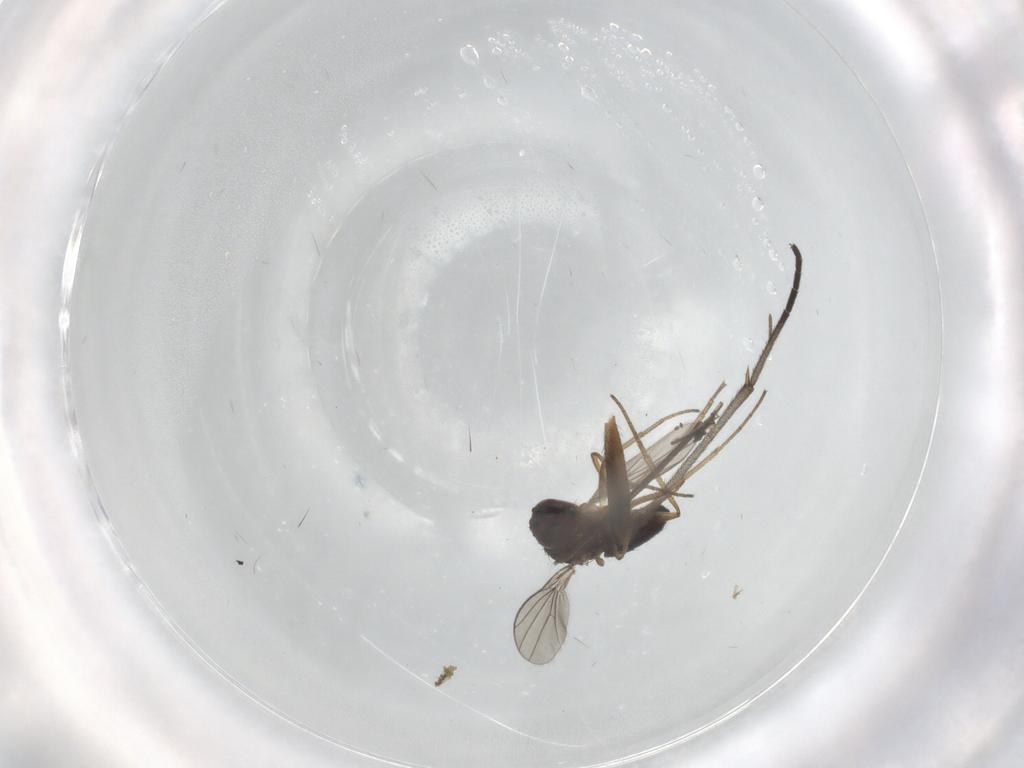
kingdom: Animalia
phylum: Arthropoda
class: Insecta
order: Diptera
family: Dolichopodidae
